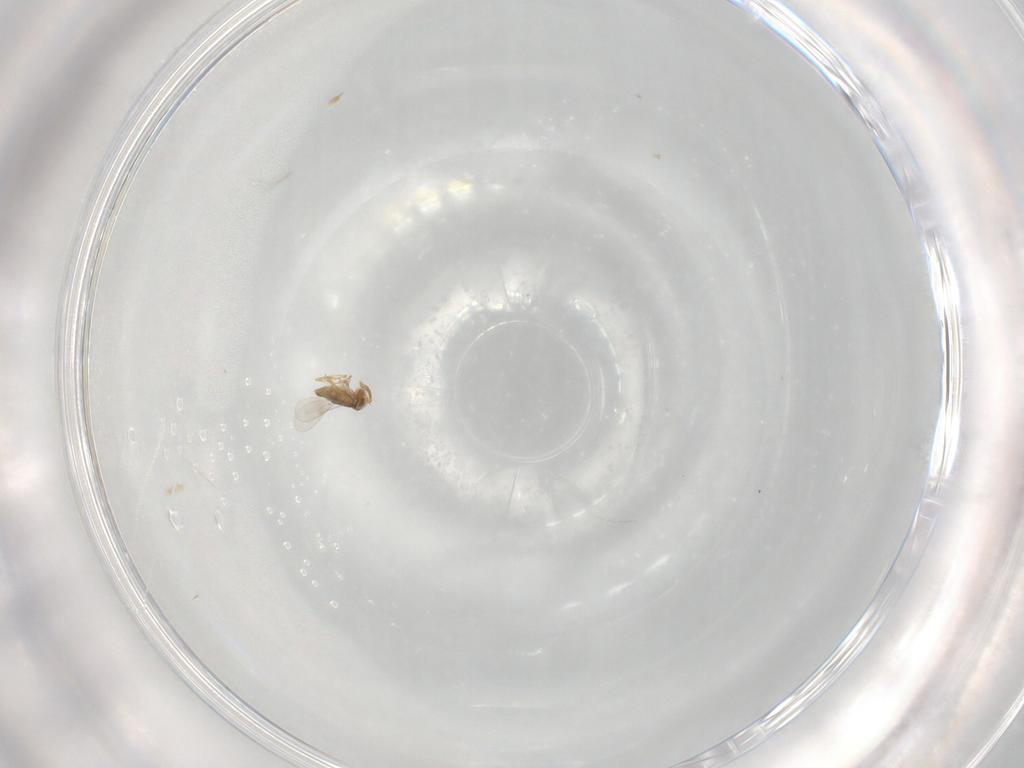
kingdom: Animalia
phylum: Arthropoda
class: Insecta
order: Hymenoptera
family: Encyrtidae
